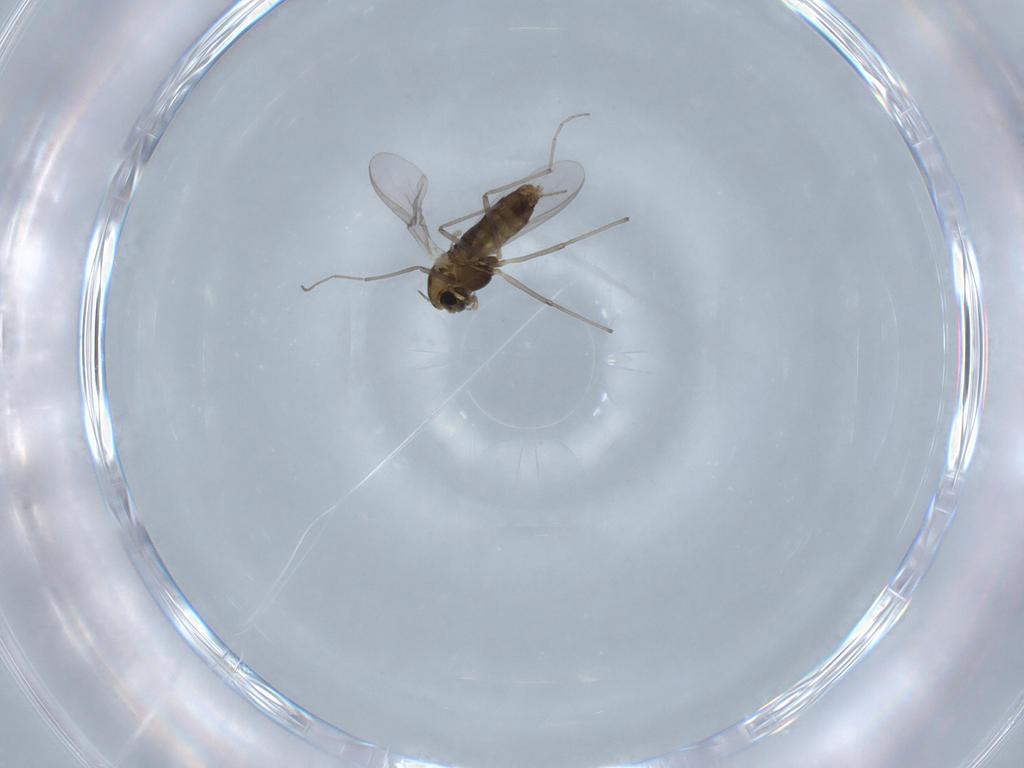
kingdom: Animalia
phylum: Arthropoda
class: Insecta
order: Diptera
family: Chironomidae
